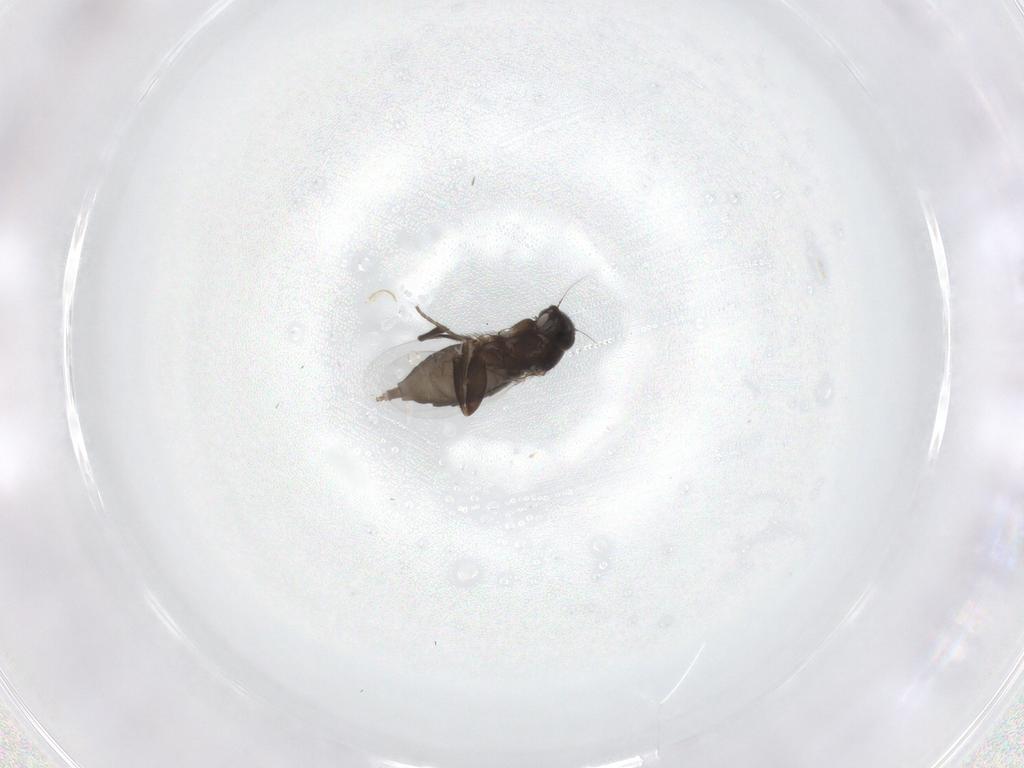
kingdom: Animalia
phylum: Arthropoda
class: Insecta
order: Diptera
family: Phoridae
